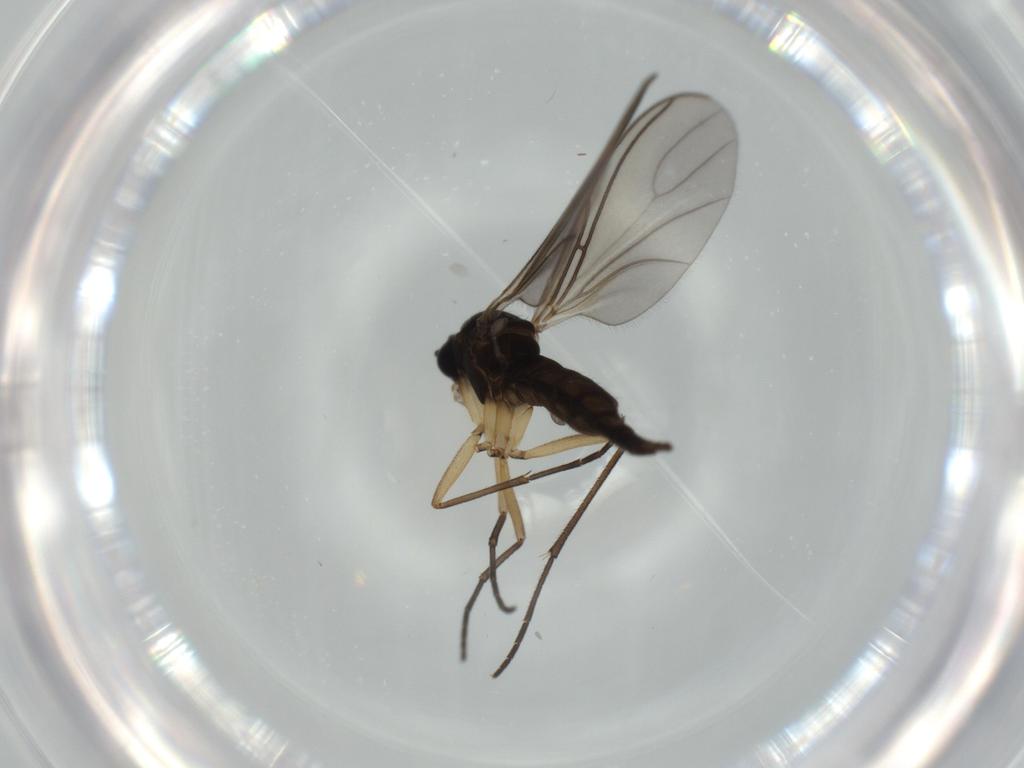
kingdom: Animalia
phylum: Arthropoda
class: Insecta
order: Diptera
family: Sciaridae
